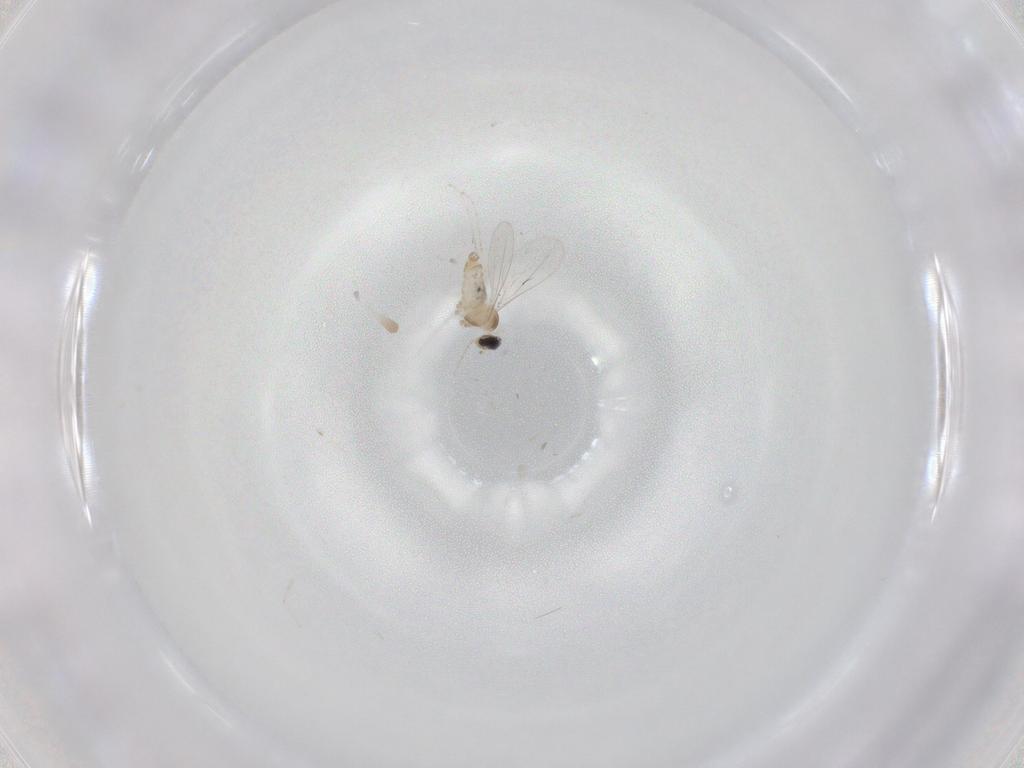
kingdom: Animalia
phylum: Arthropoda
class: Insecta
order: Diptera
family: Cecidomyiidae
